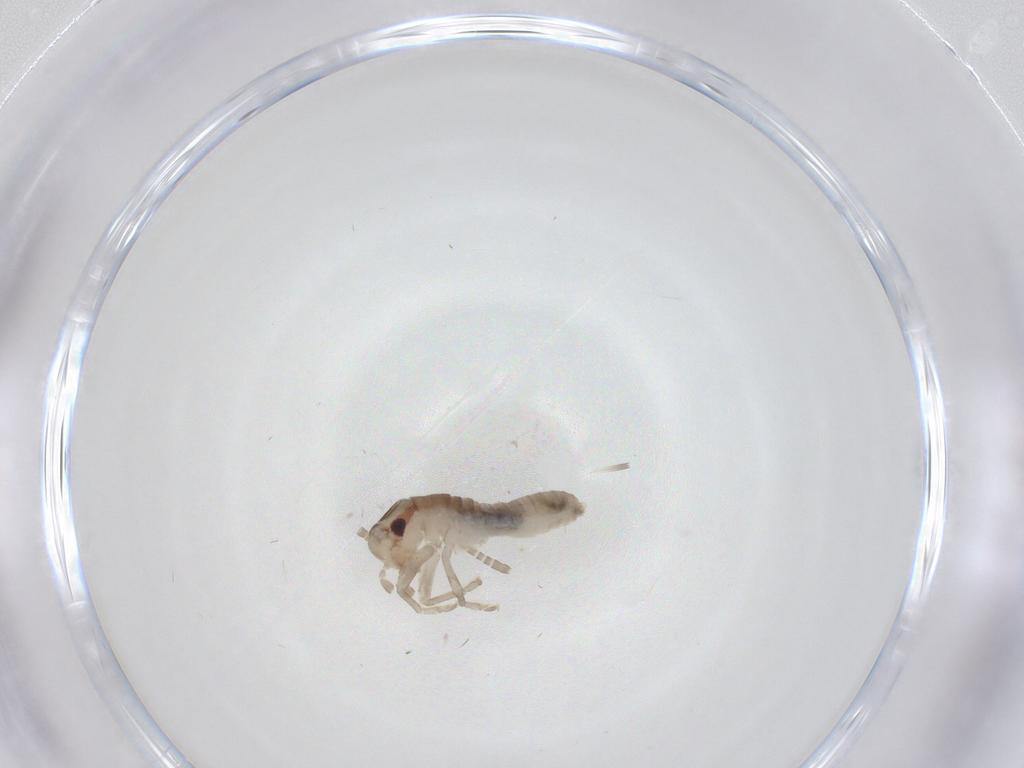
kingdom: Animalia
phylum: Arthropoda
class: Insecta
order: Orthoptera
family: Gryllidae
